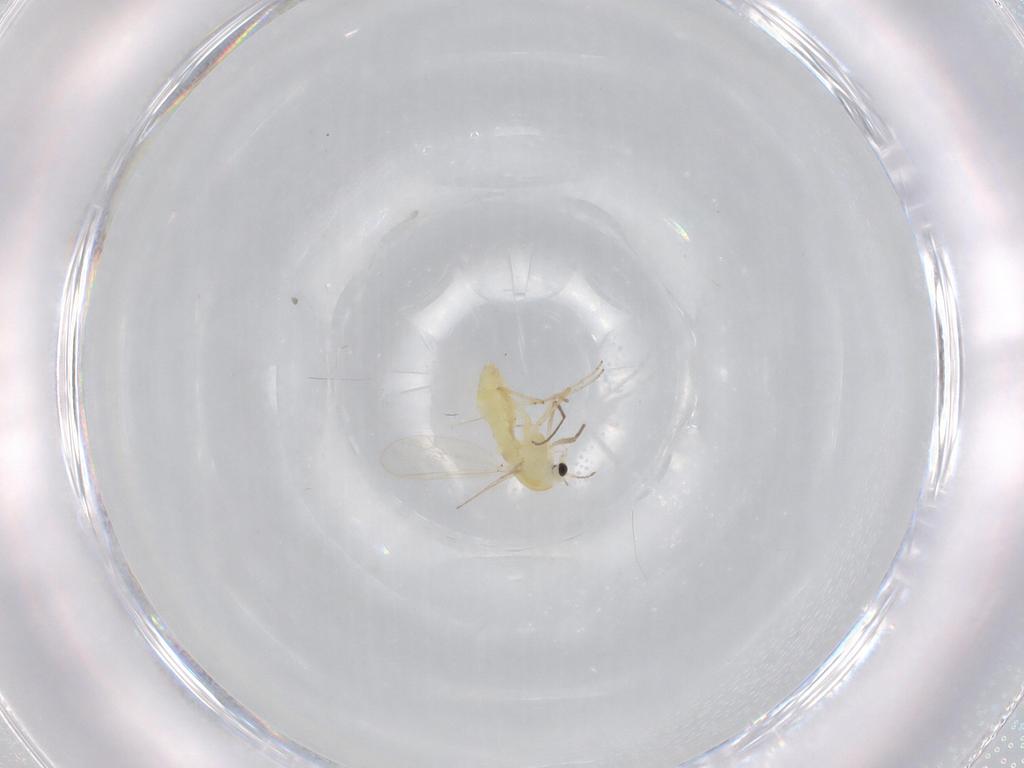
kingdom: Animalia
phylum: Arthropoda
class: Insecta
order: Diptera
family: Chironomidae
